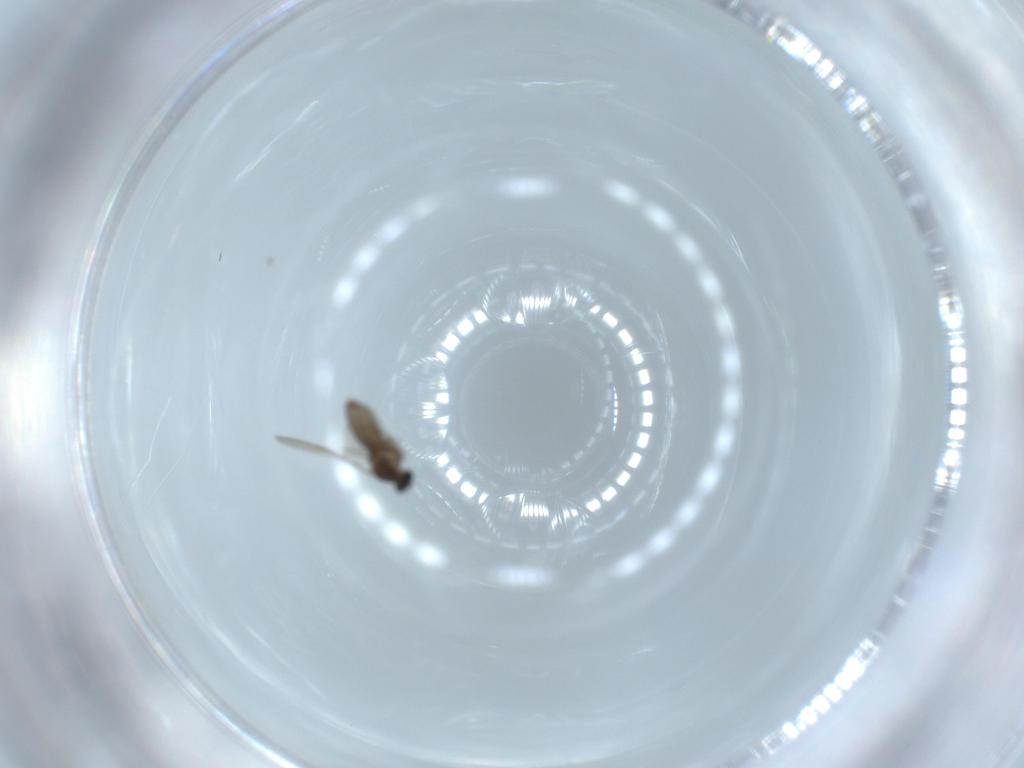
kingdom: Animalia
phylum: Arthropoda
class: Insecta
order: Diptera
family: Cecidomyiidae
